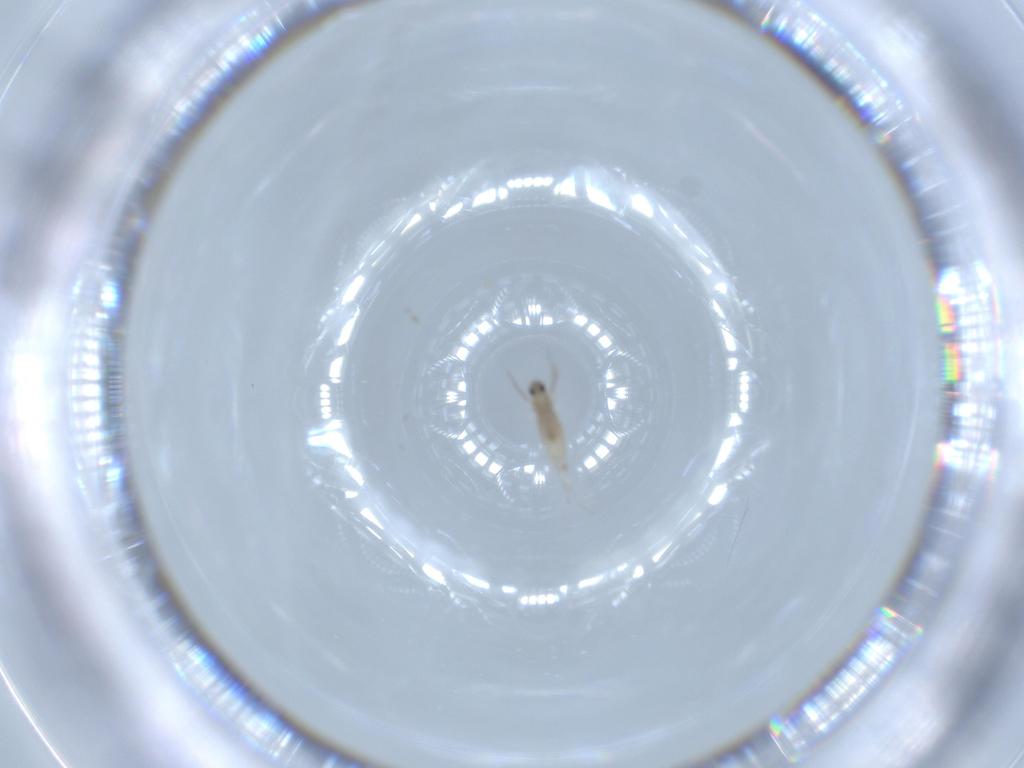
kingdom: Animalia
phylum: Arthropoda
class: Insecta
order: Diptera
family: Cecidomyiidae
